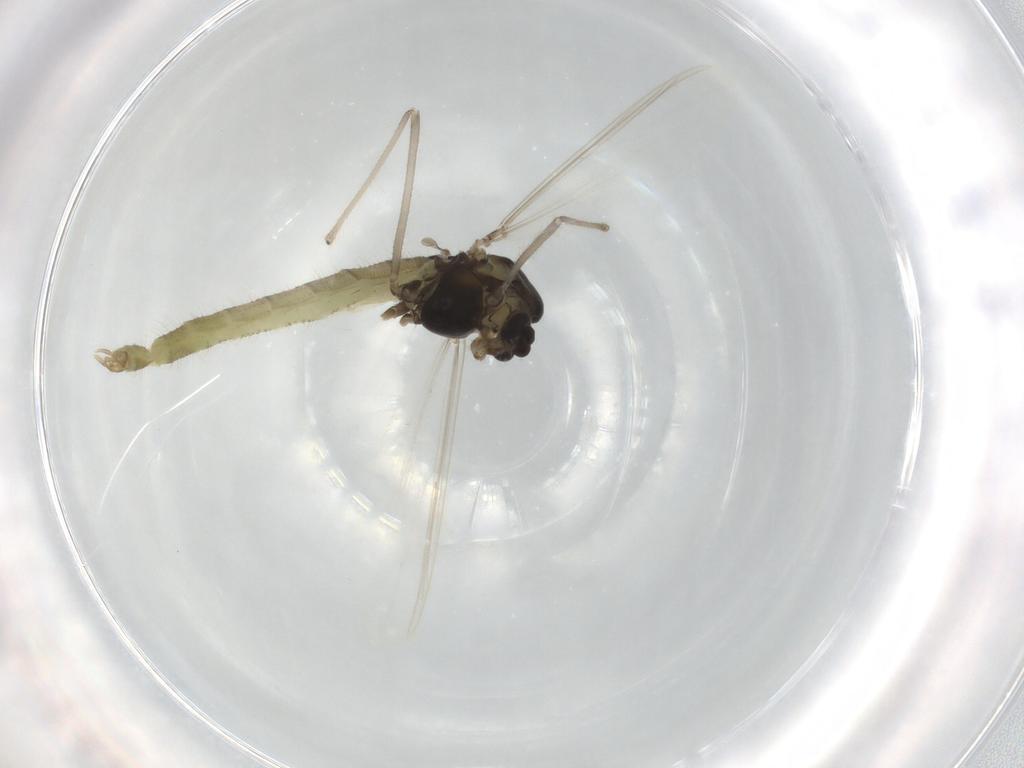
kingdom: Animalia
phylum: Arthropoda
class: Insecta
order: Diptera
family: Chironomidae
